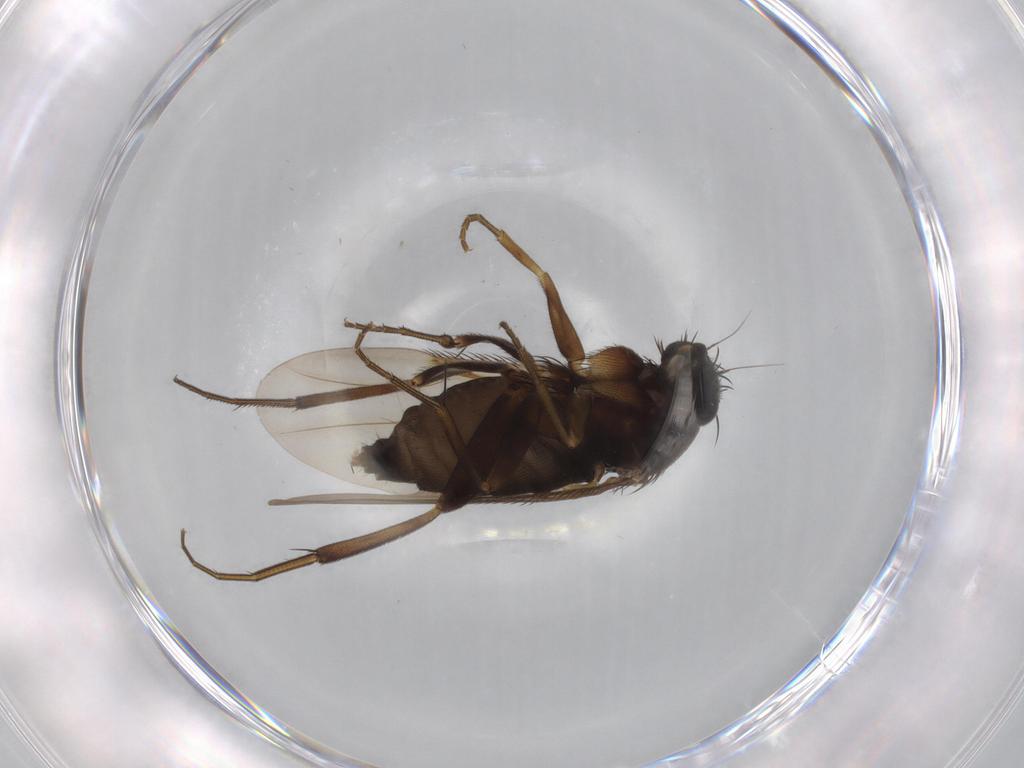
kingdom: Animalia
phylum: Arthropoda
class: Insecta
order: Diptera
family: Phoridae
